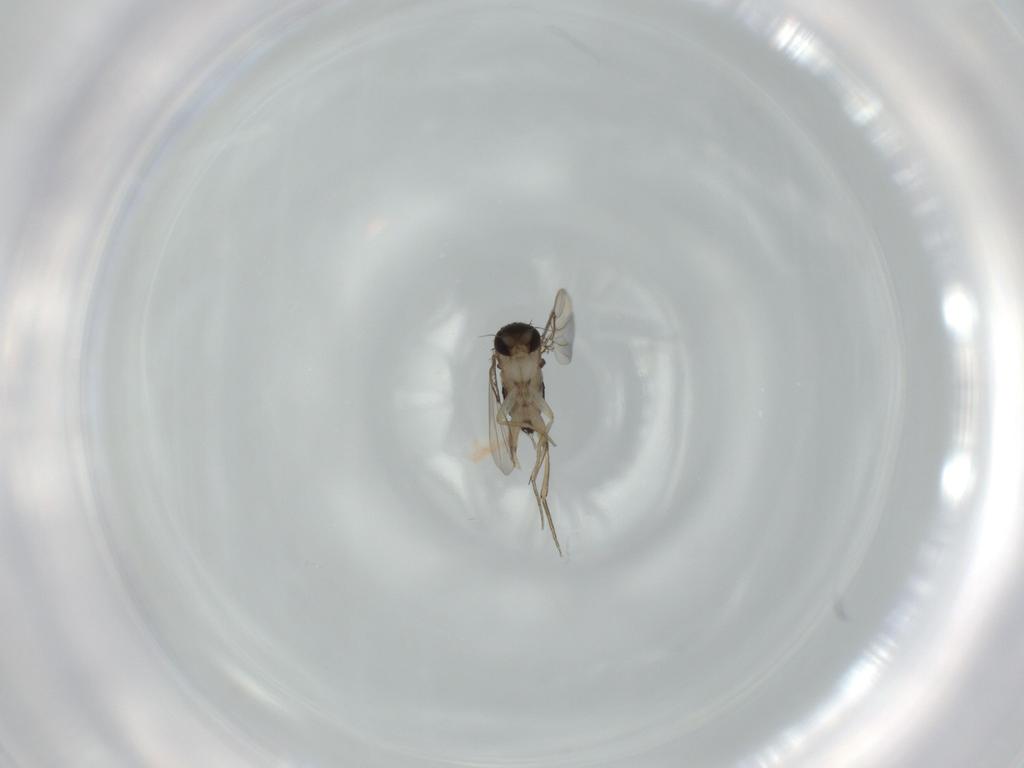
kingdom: Animalia
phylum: Arthropoda
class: Insecta
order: Diptera
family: Phoridae
